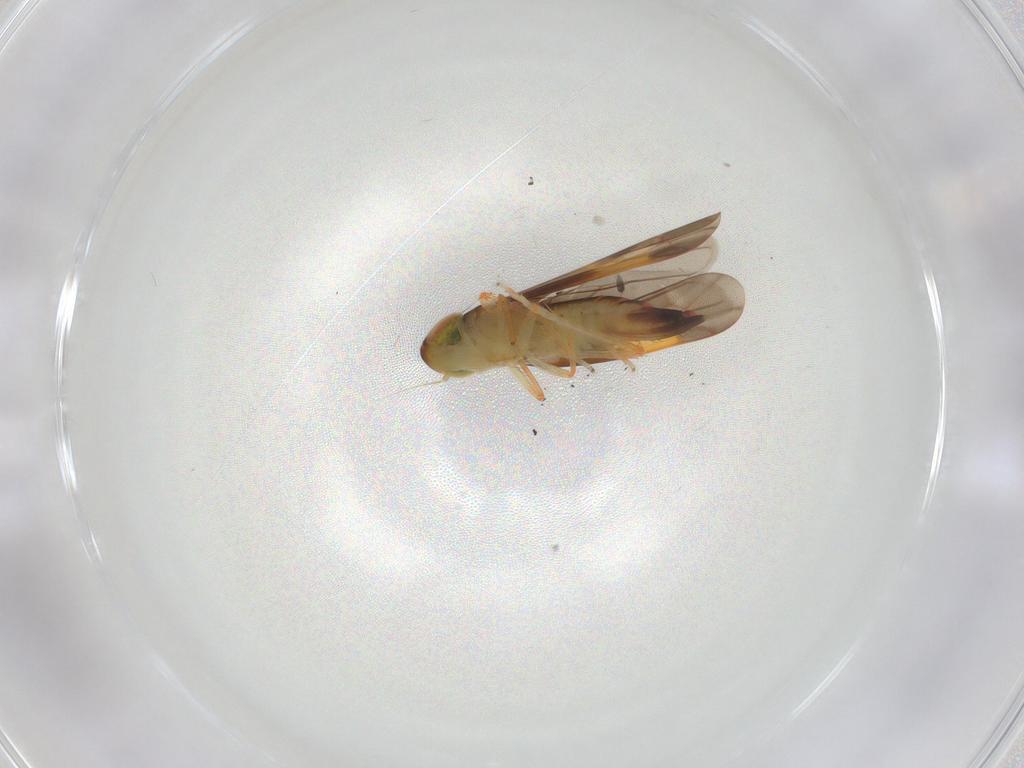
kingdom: Animalia
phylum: Arthropoda
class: Insecta
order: Hemiptera
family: Cicadellidae
